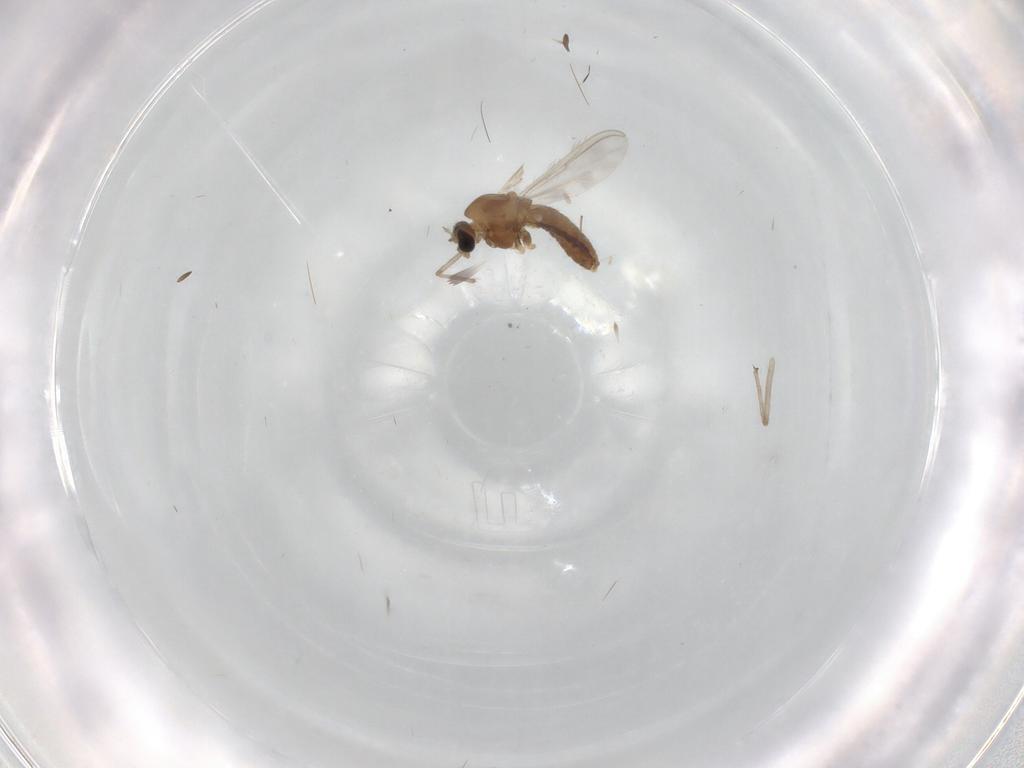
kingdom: Animalia
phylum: Arthropoda
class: Insecta
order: Diptera
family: Chironomidae
